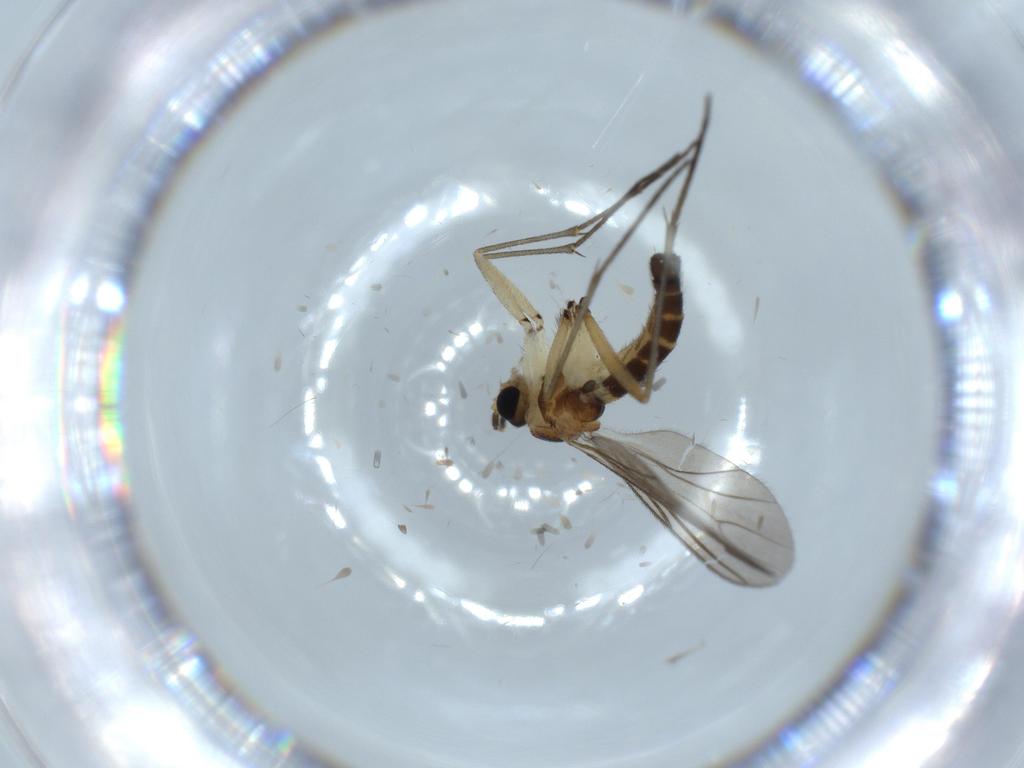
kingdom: Animalia
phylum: Arthropoda
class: Insecta
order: Diptera
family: Sciaridae
